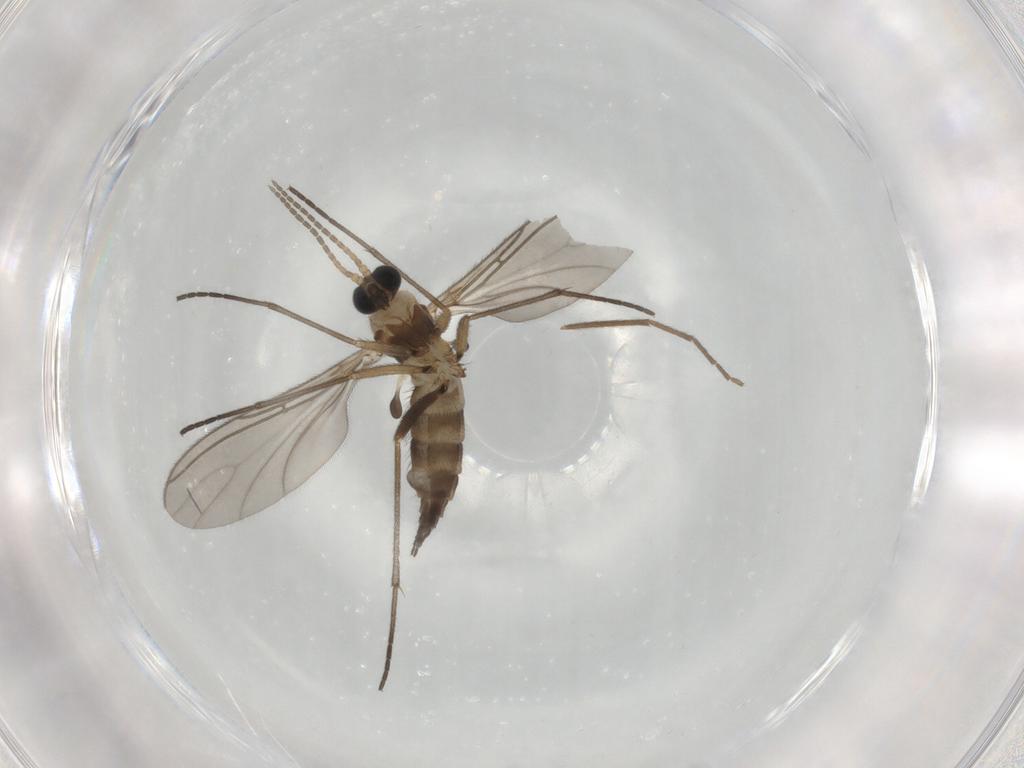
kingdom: Animalia
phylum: Arthropoda
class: Insecta
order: Diptera
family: Sciaridae
